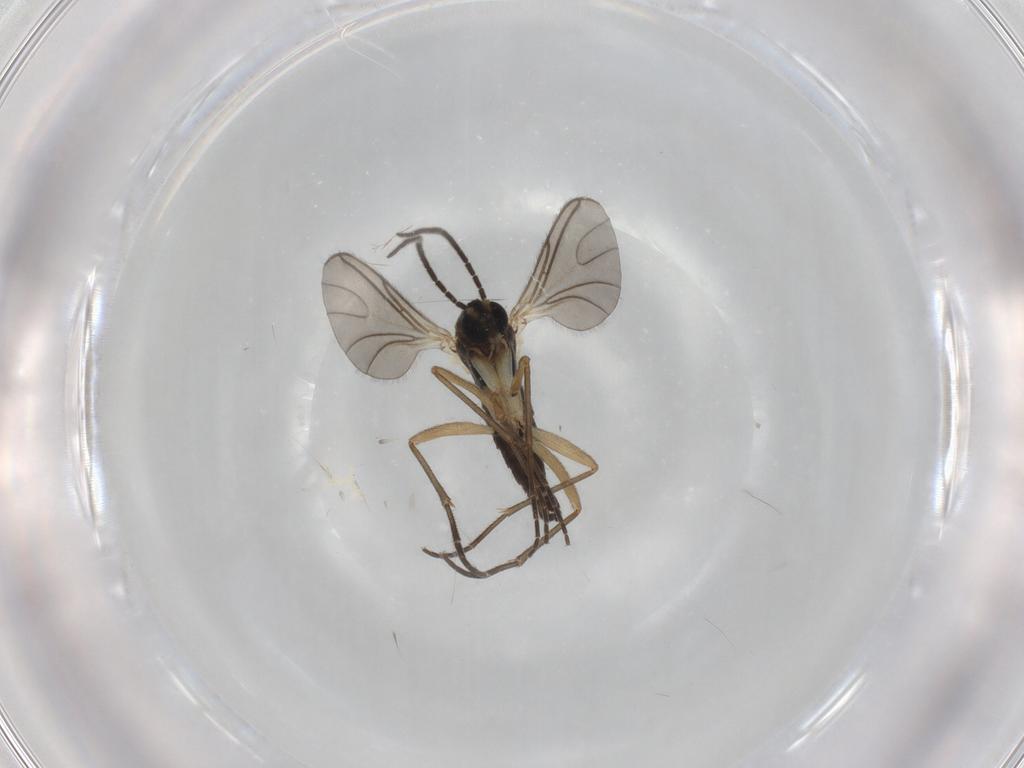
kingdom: Animalia
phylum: Arthropoda
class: Insecta
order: Diptera
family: Sciaridae
